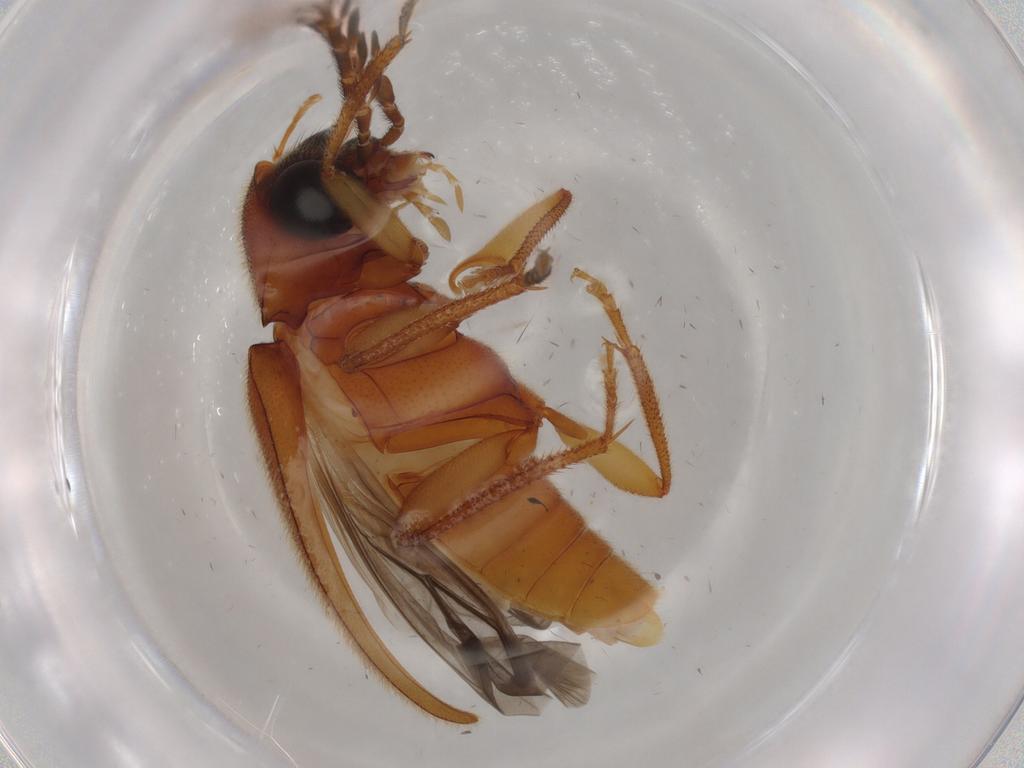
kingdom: Animalia
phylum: Arthropoda
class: Insecta
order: Coleoptera
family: Ptilodactylidae
